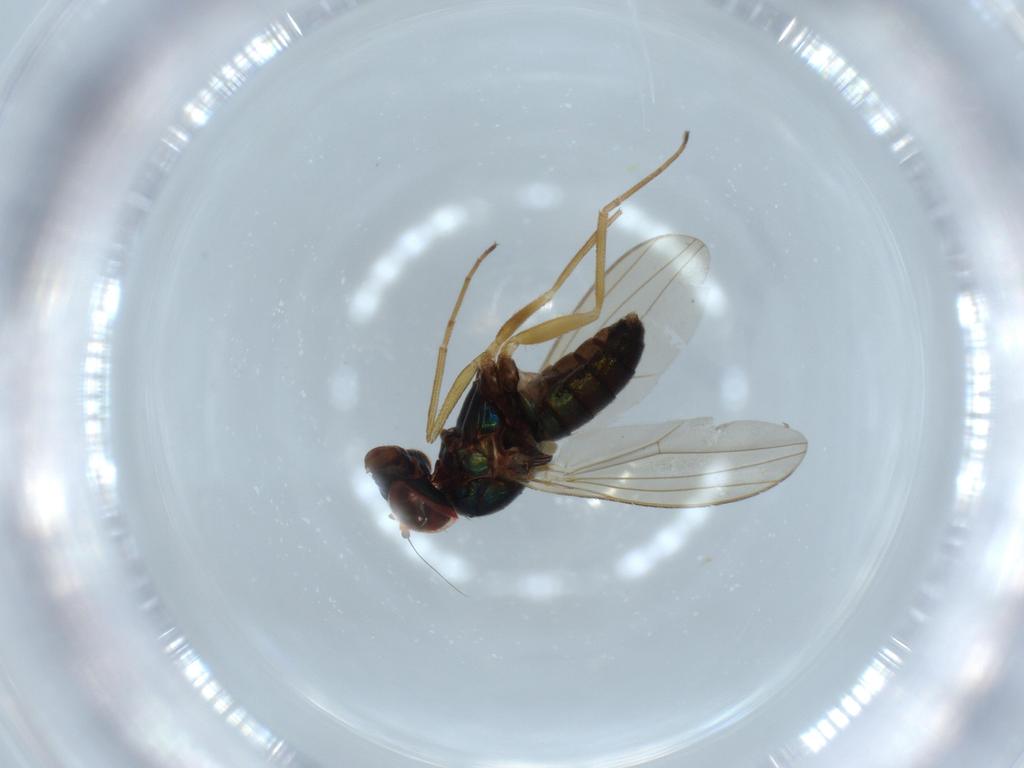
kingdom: Animalia
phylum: Arthropoda
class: Insecta
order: Diptera
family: Dolichopodidae
